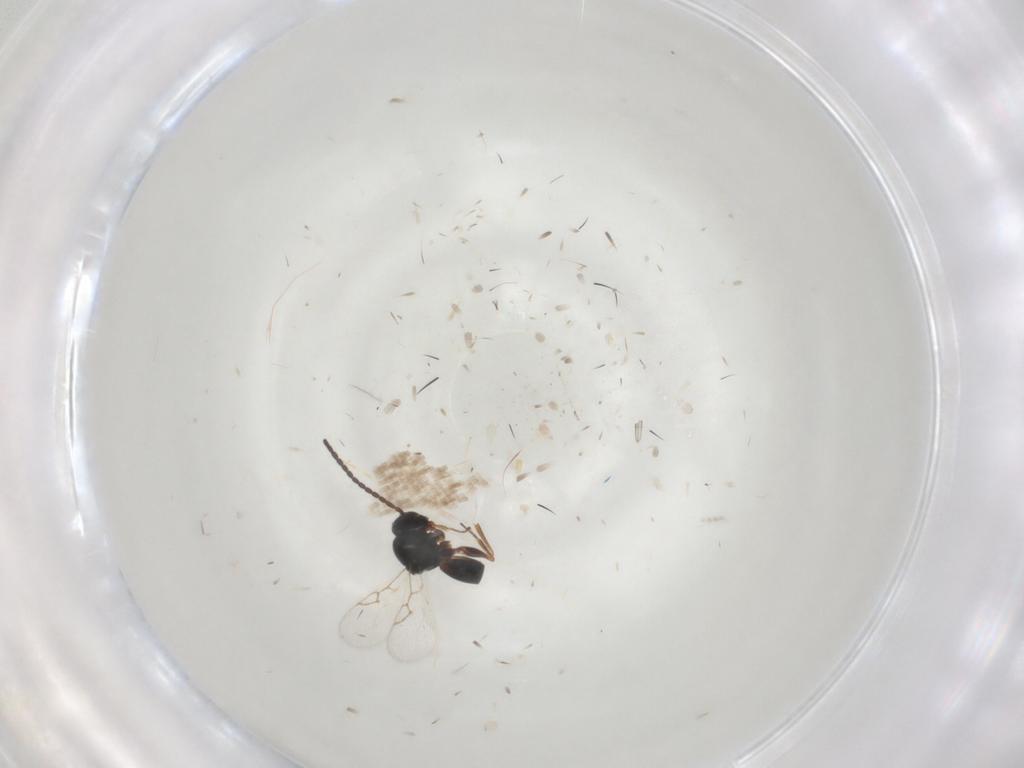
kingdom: Animalia
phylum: Arthropoda
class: Insecta
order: Hymenoptera
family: Figitidae
